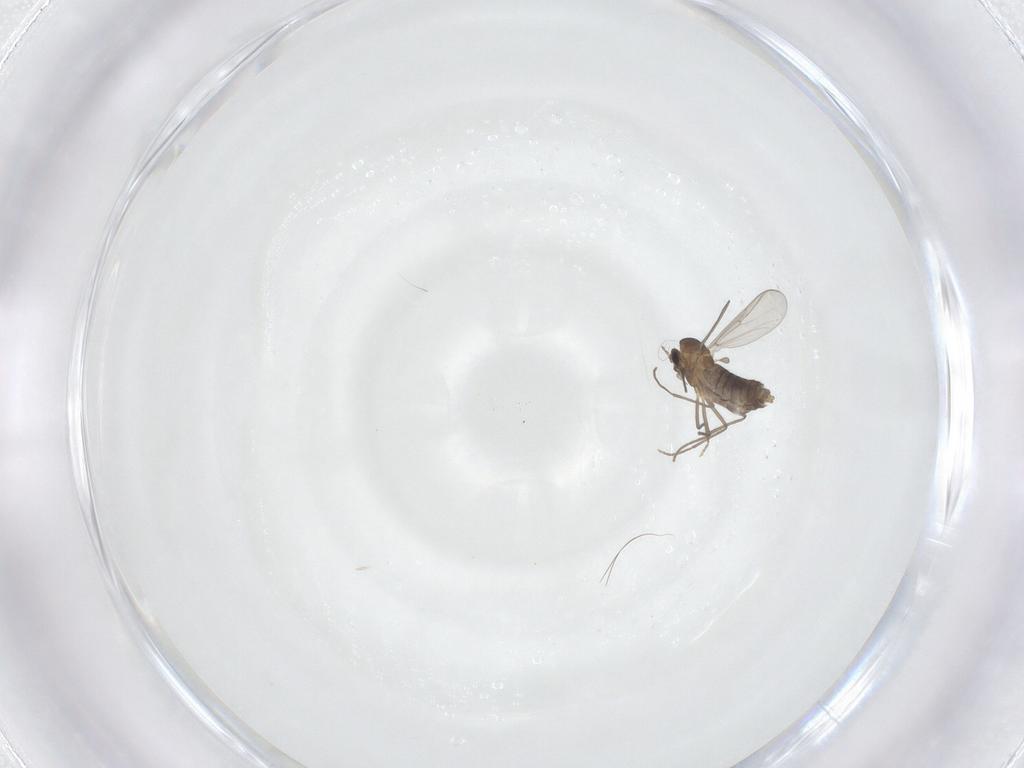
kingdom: Animalia
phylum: Arthropoda
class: Insecta
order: Diptera
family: Chironomidae
